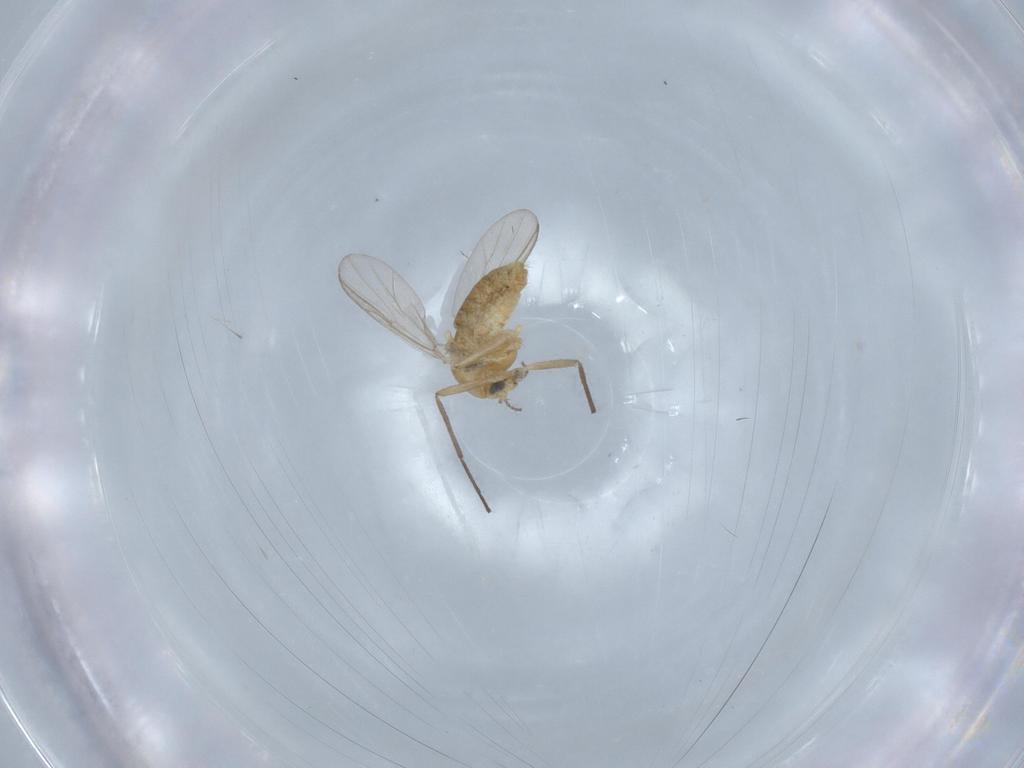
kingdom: Animalia
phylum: Arthropoda
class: Insecta
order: Diptera
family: Chironomidae
